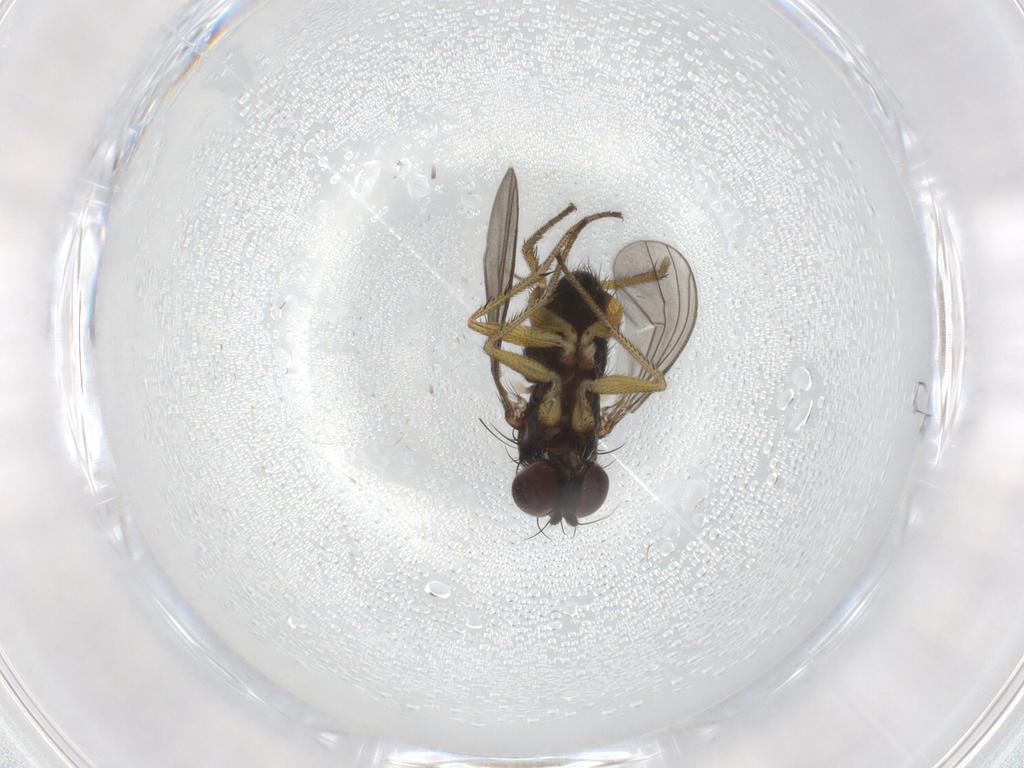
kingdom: Animalia
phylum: Arthropoda
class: Insecta
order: Diptera
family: Dolichopodidae
